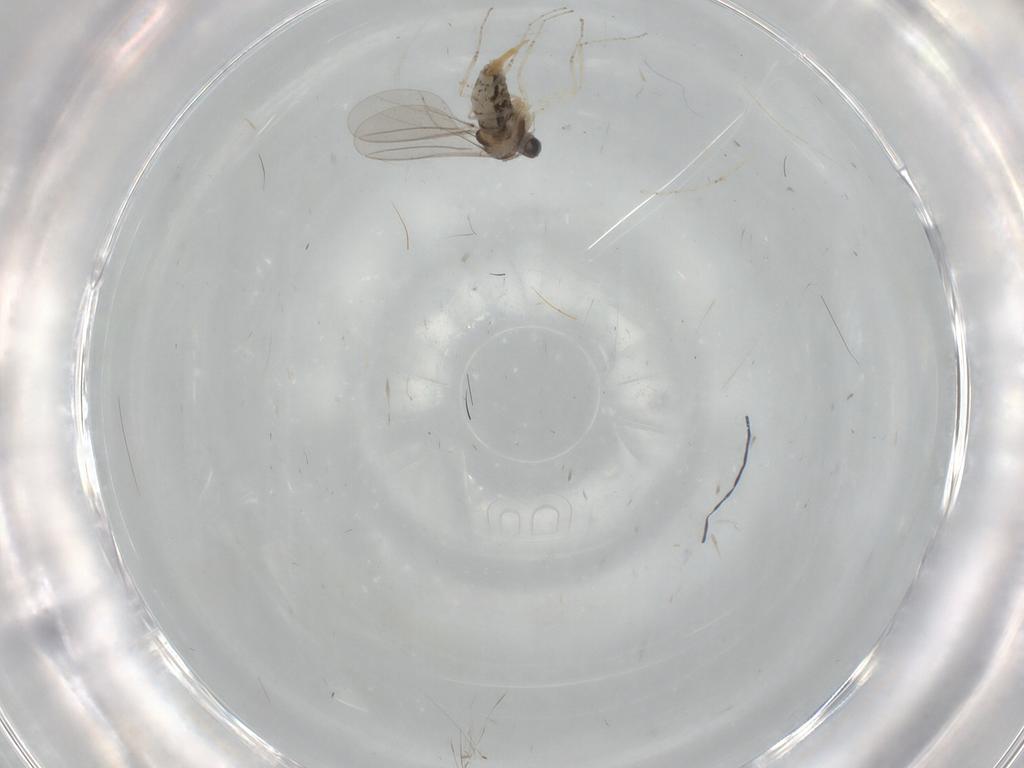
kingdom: Animalia
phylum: Arthropoda
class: Insecta
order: Diptera
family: Cecidomyiidae
